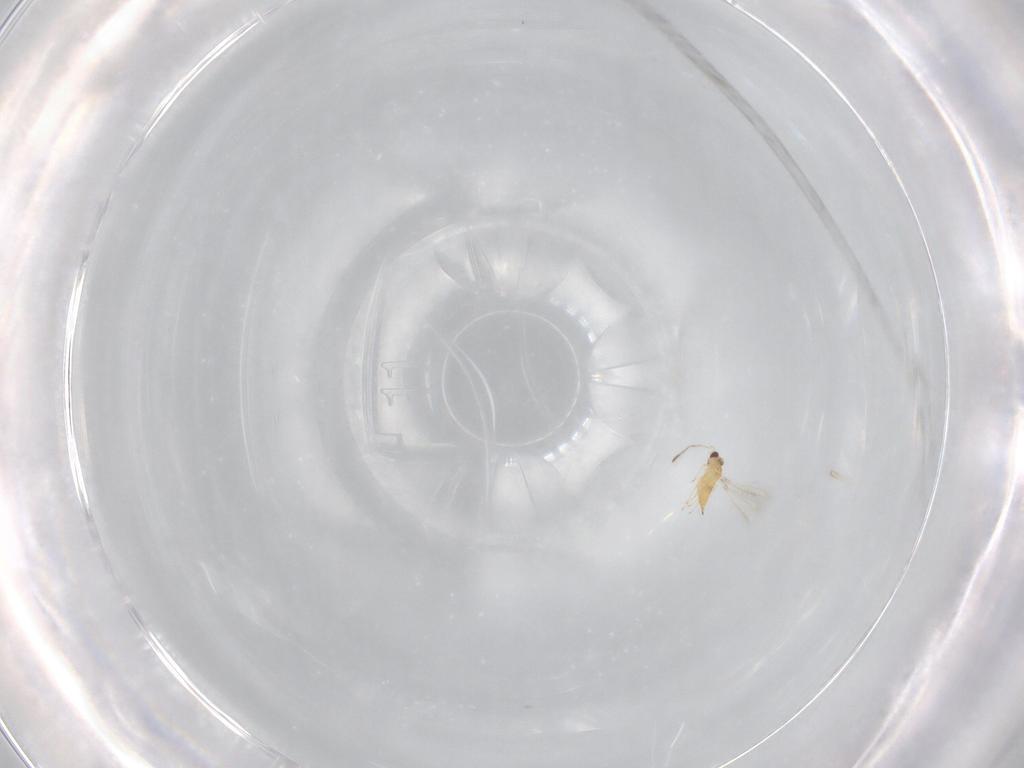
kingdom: Animalia
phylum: Arthropoda
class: Insecta
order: Hymenoptera
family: Mymaridae
